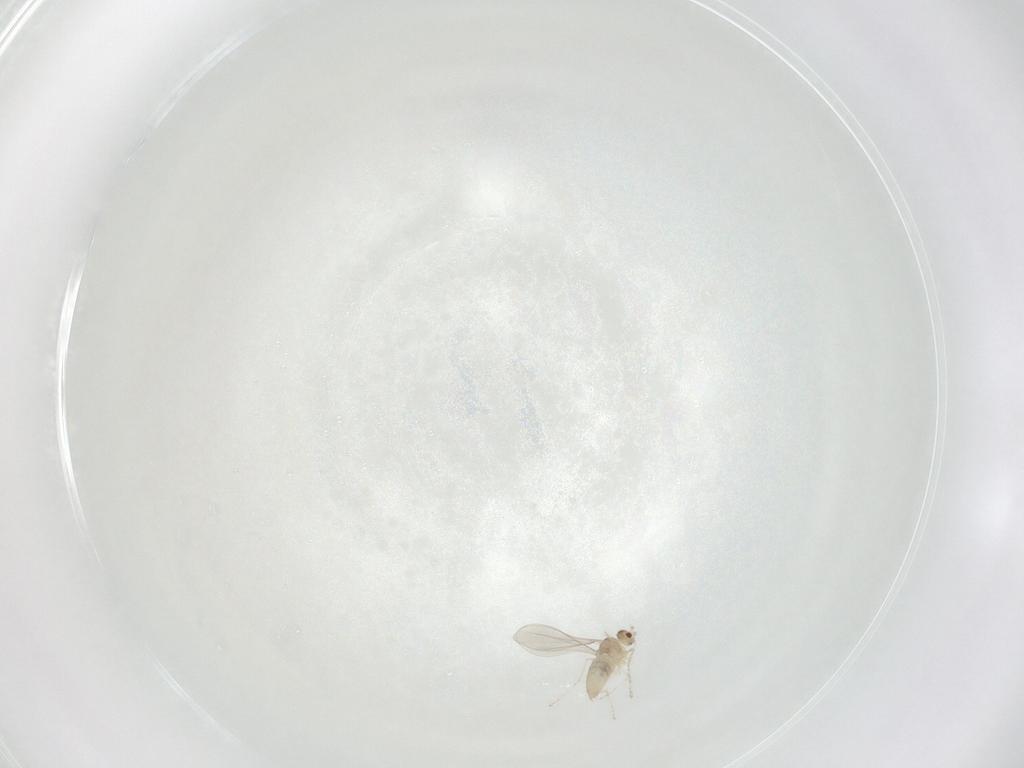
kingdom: Animalia
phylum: Arthropoda
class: Insecta
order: Diptera
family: Cecidomyiidae
